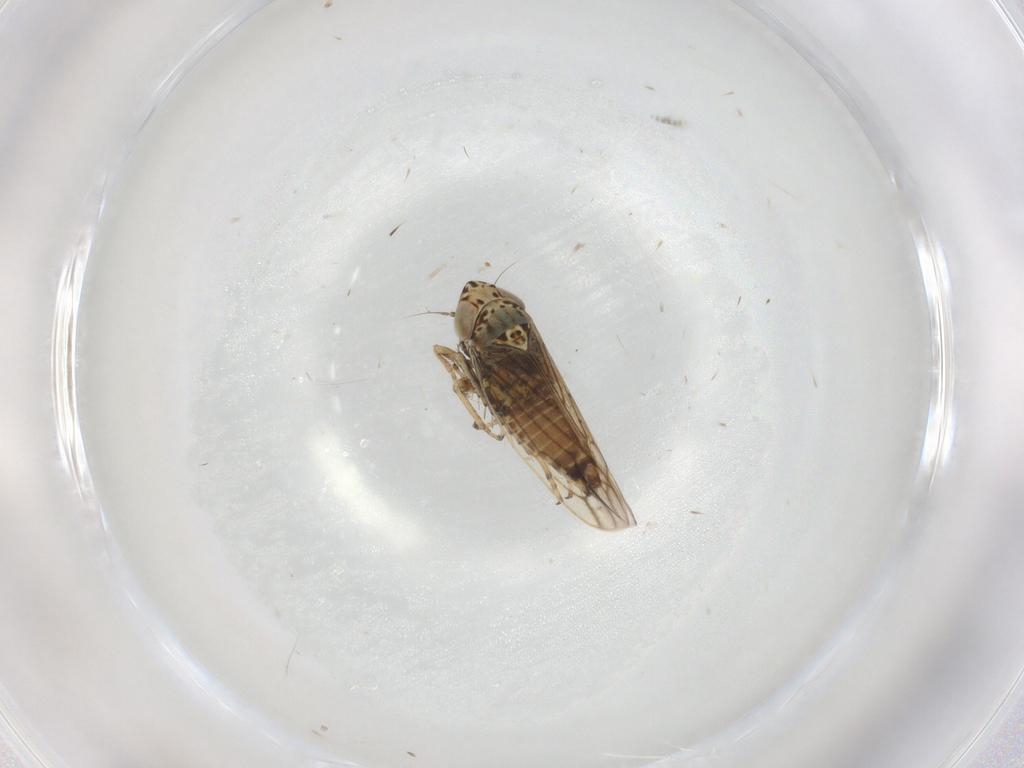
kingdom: Animalia
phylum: Arthropoda
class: Insecta
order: Hemiptera
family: Cicadellidae
